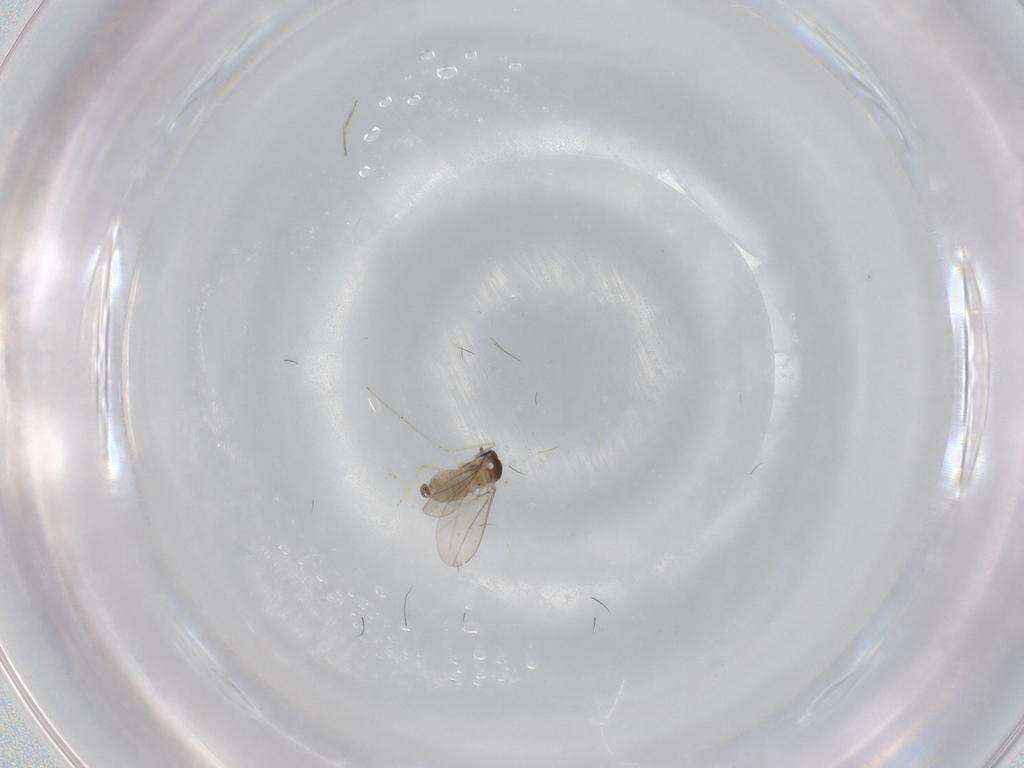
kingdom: Animalia
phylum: Arthropoda
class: Insecta
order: Diptera
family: Cecidomyiidae
